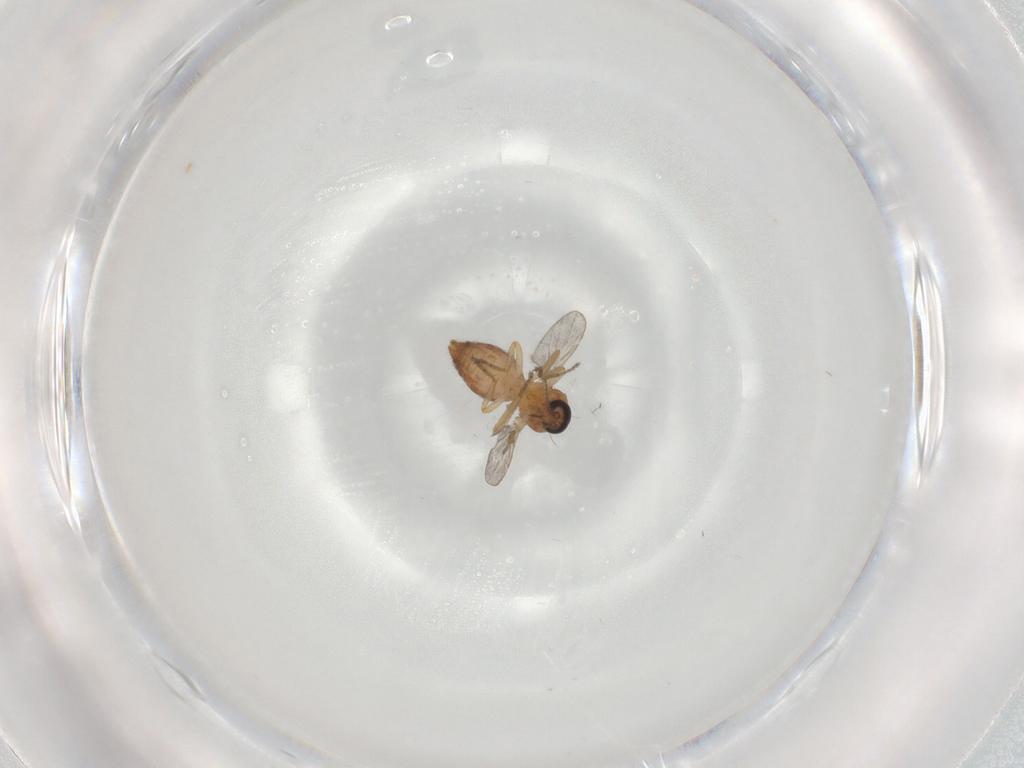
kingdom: Animalia
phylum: Arthropoda
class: Insecta
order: Diptera
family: Ceratopogonidae
